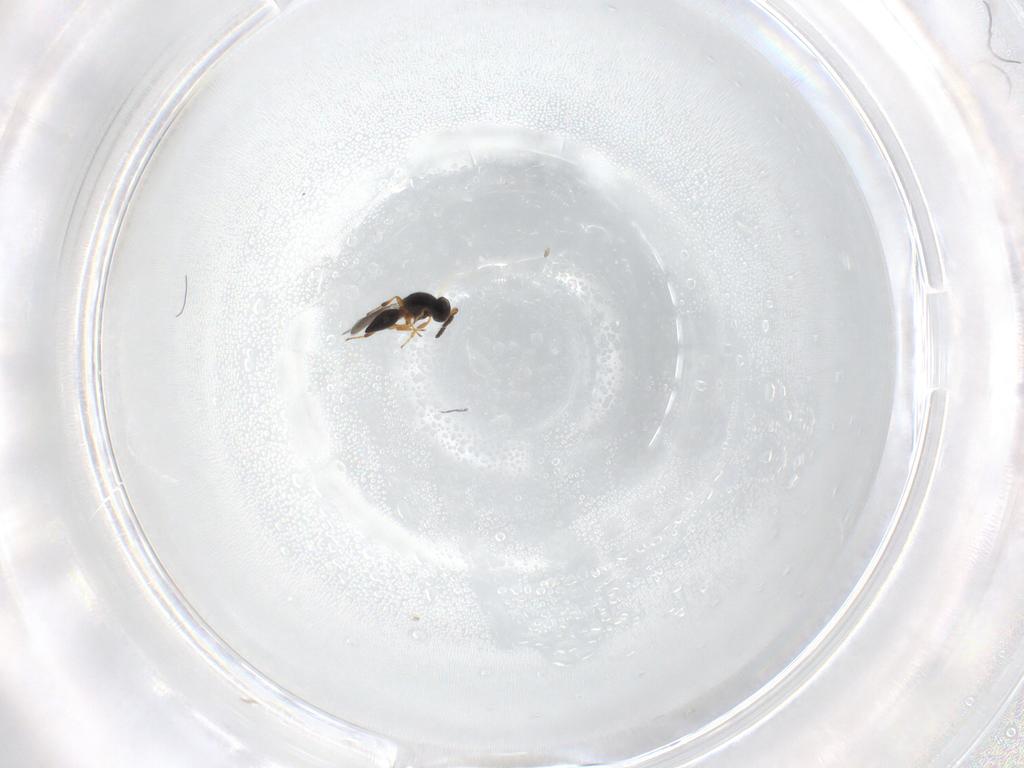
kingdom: Animalia
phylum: Arthropoda
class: Insecta
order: Hymenoptera
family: Platygastridae
